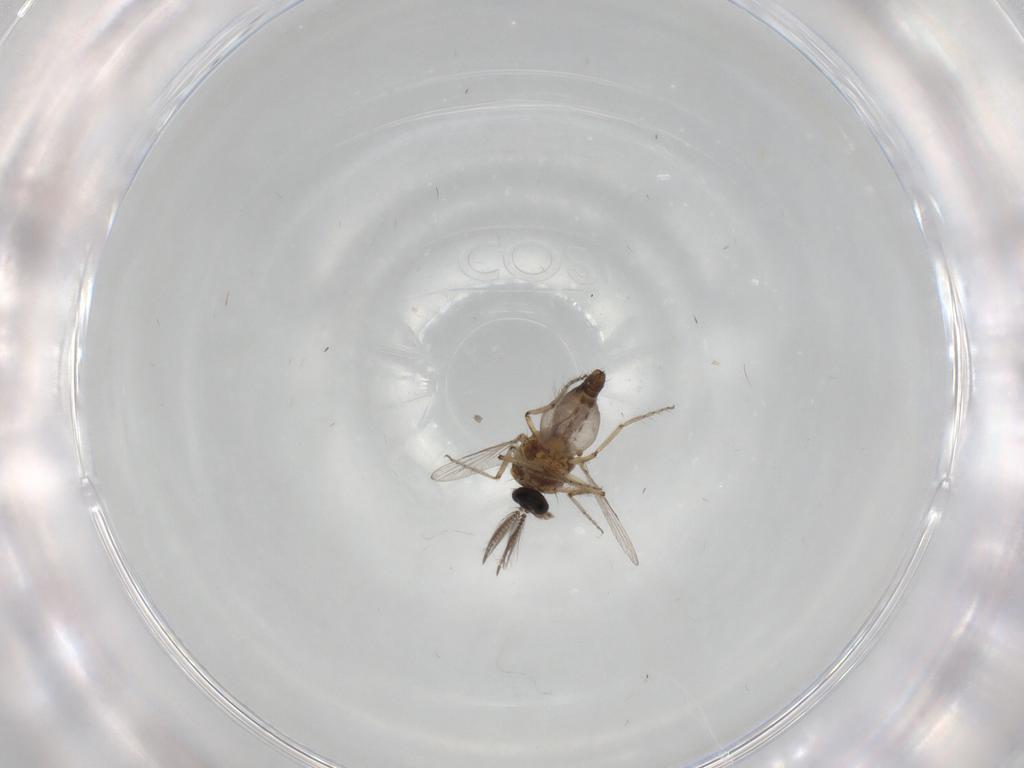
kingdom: Animalia
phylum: Arthropoda
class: Insecta
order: Diptera
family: Ceratopogonidae
